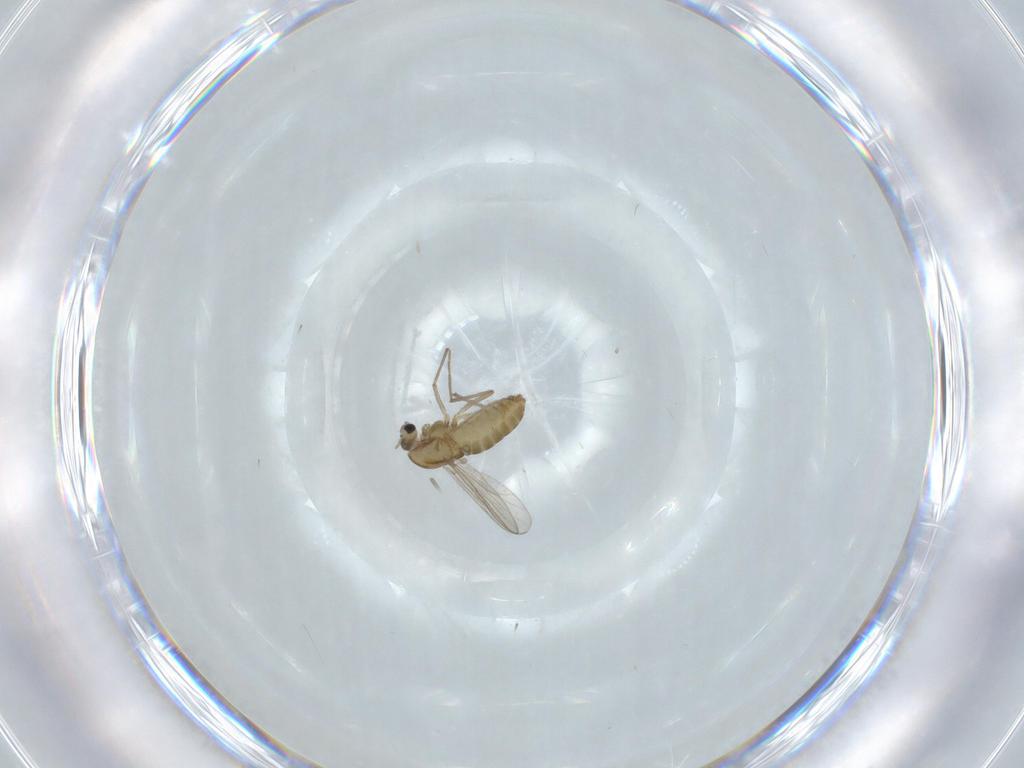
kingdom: Animalia
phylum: Arthropoda
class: Insecta
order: Diptera
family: Chironomidae
